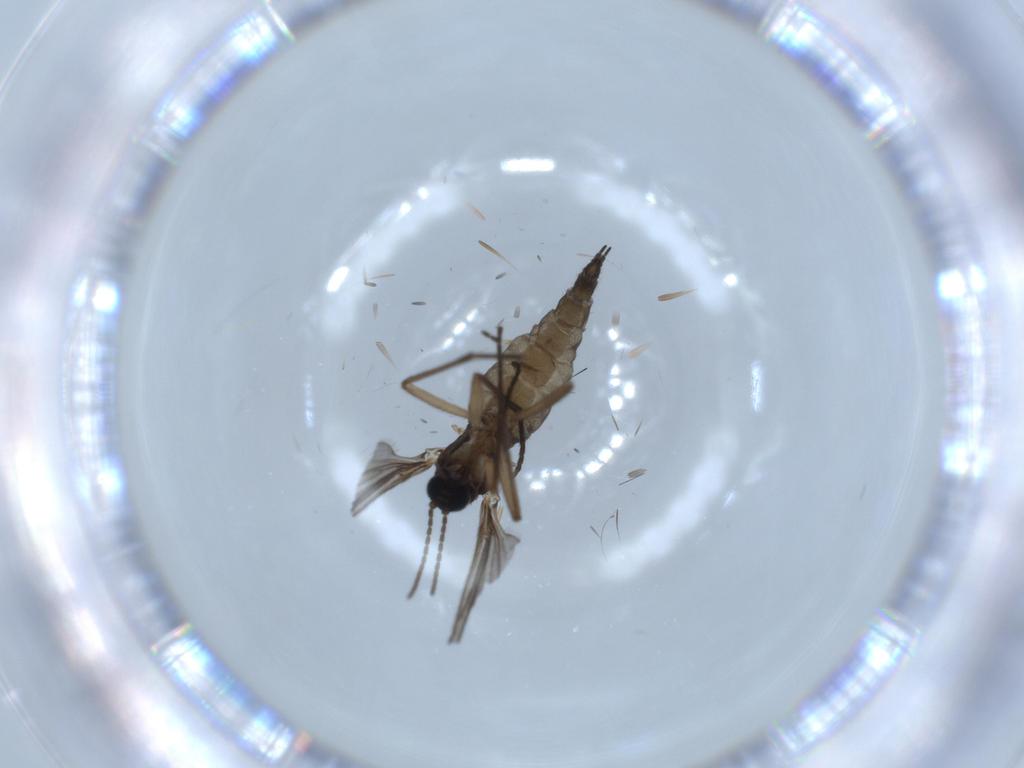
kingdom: Animalia
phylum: Arthropoda
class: Insecta
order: Diptera
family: Sciaridae
